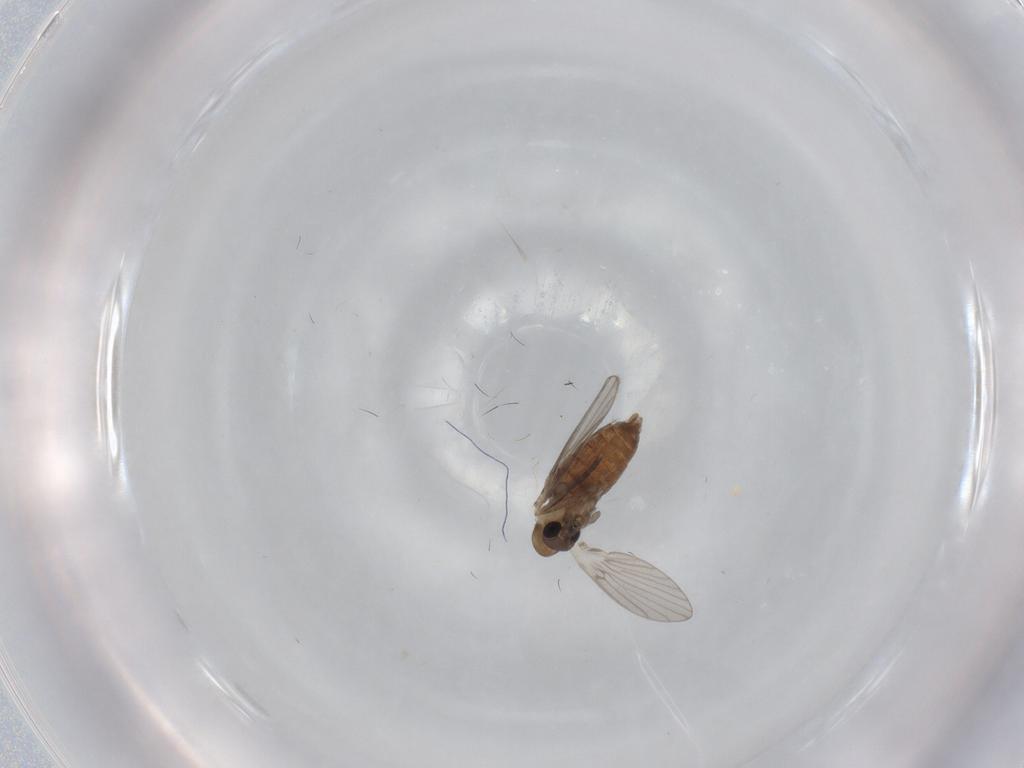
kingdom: Animalia
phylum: Arthropoda
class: Insecta
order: Diptera
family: Psychodidae
